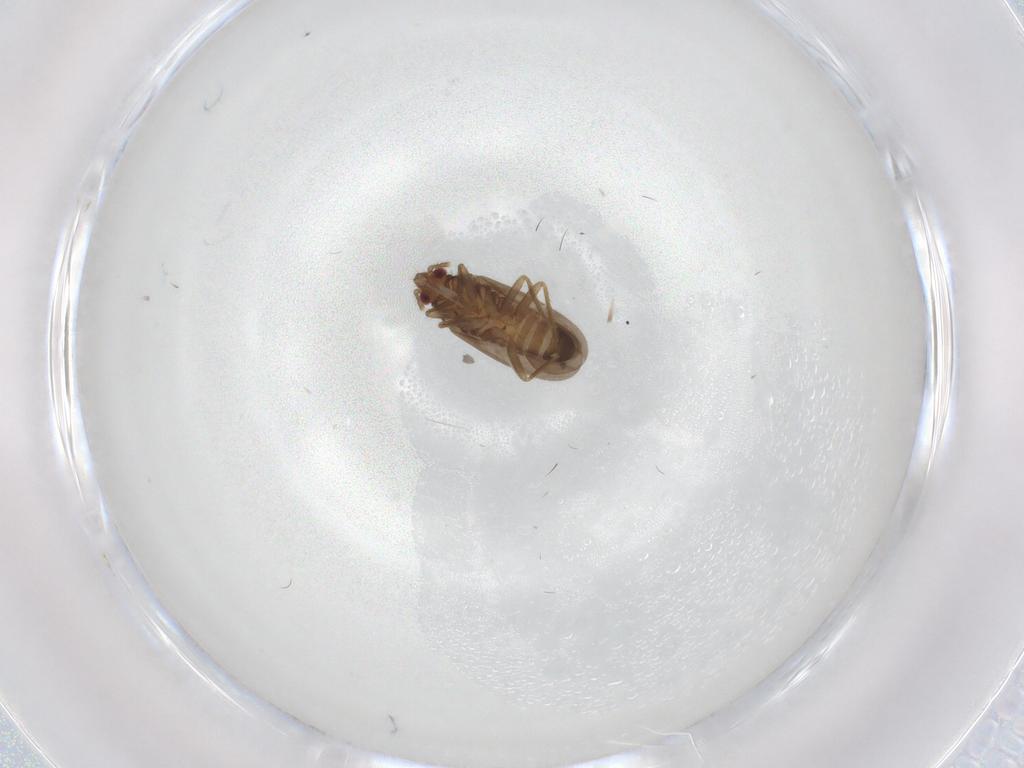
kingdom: Animalia
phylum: Arthropoda
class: Insecta
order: Hemiptera
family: Ceratocombidae
